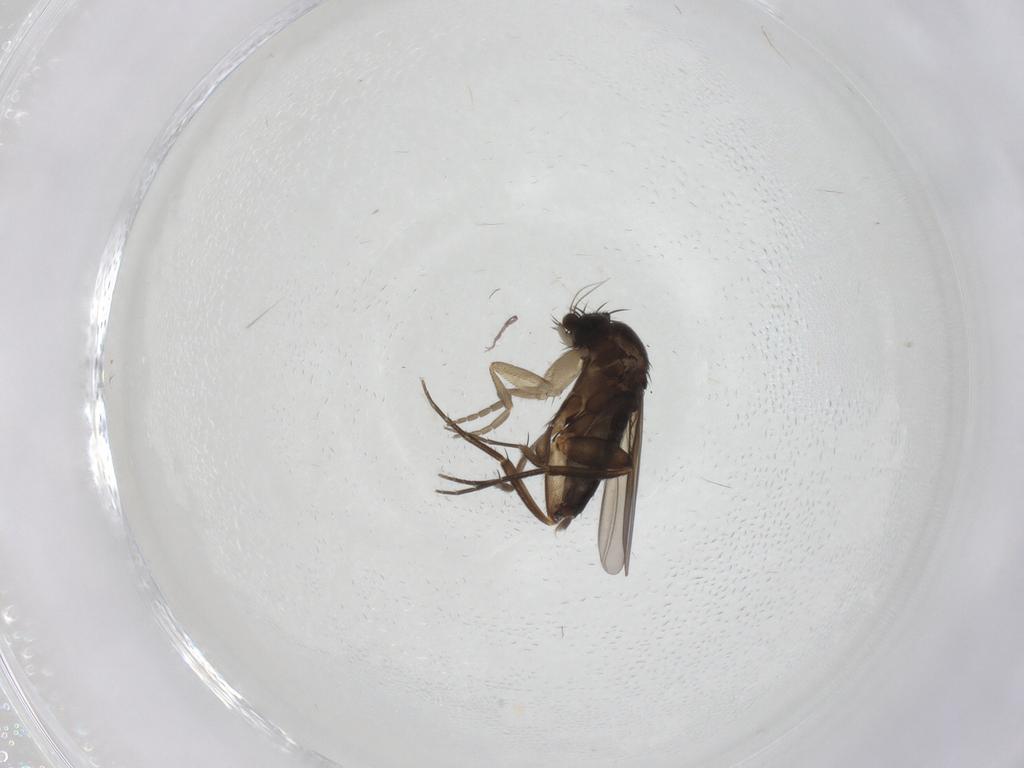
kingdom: Animalia
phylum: Arthropoda
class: Insecta
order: Diptera
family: Phoridae
